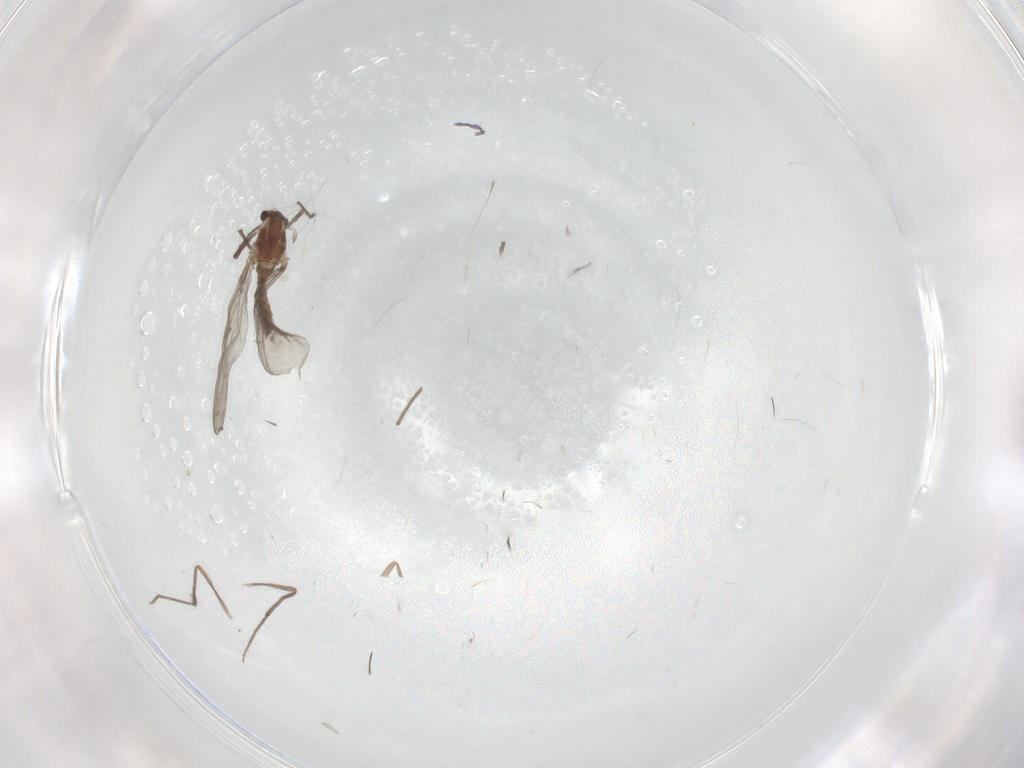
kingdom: Animalia
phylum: Arthropoda
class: Insecta
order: Diptera
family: Chironomidae
